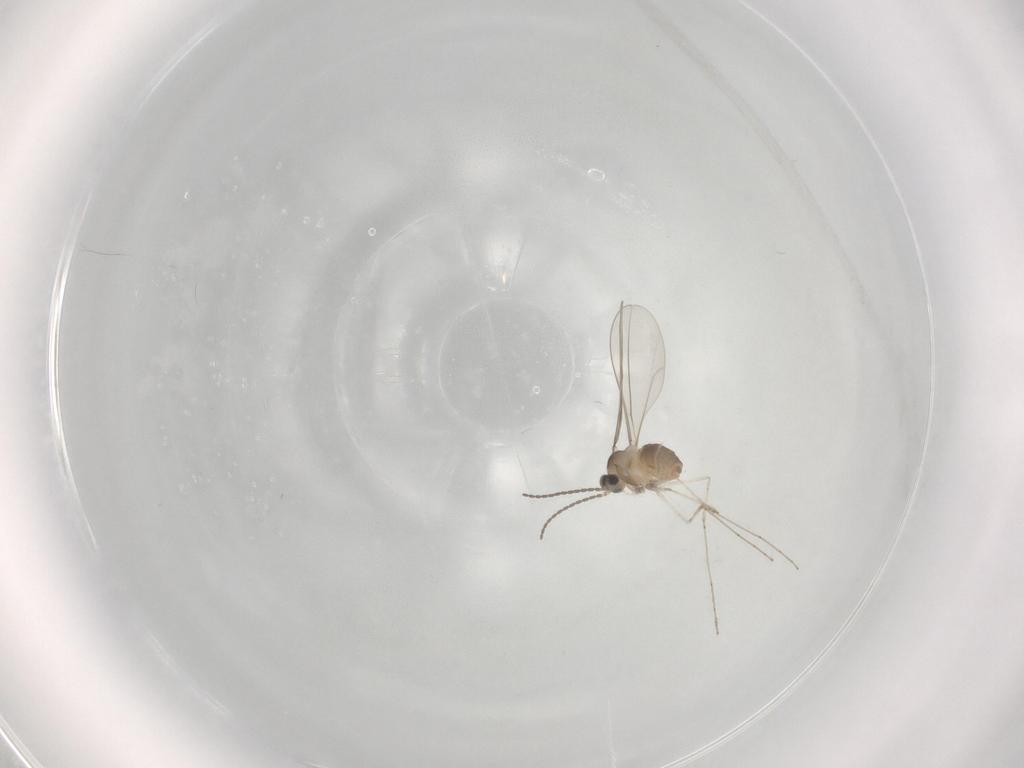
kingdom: Animalia
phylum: Arthropoda
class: Insecta
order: Diptera
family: Cecidomyiidae
